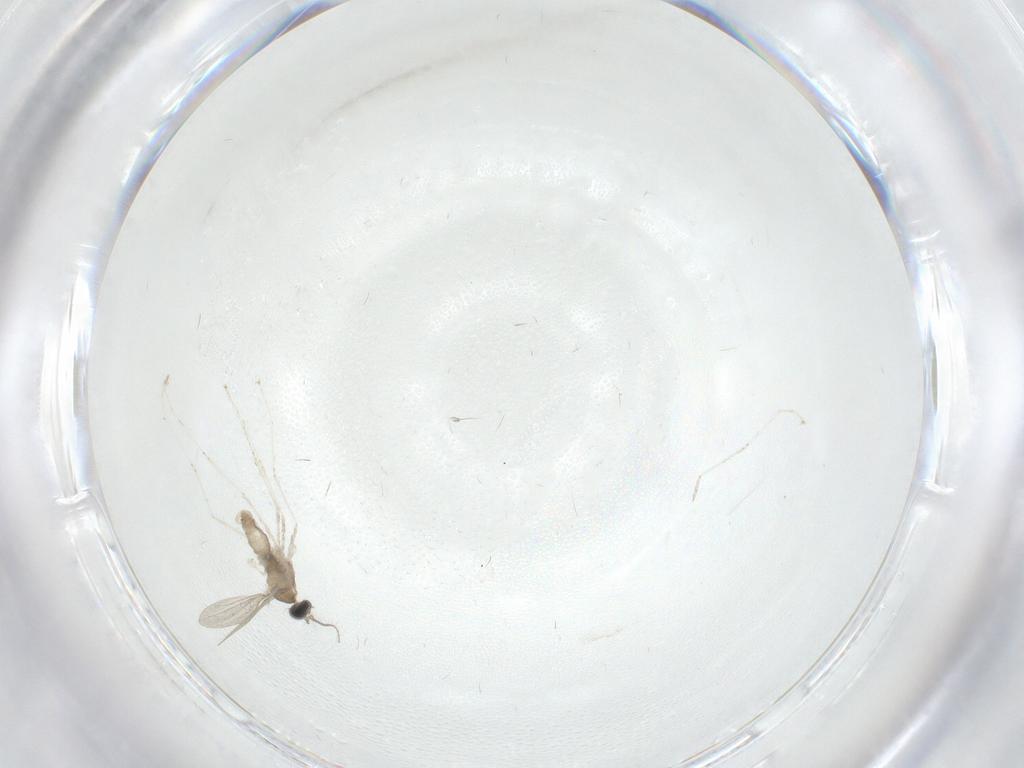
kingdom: Animalia
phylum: Arthropoda
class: Insecta
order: Diptera
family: Cecidomyiidae
